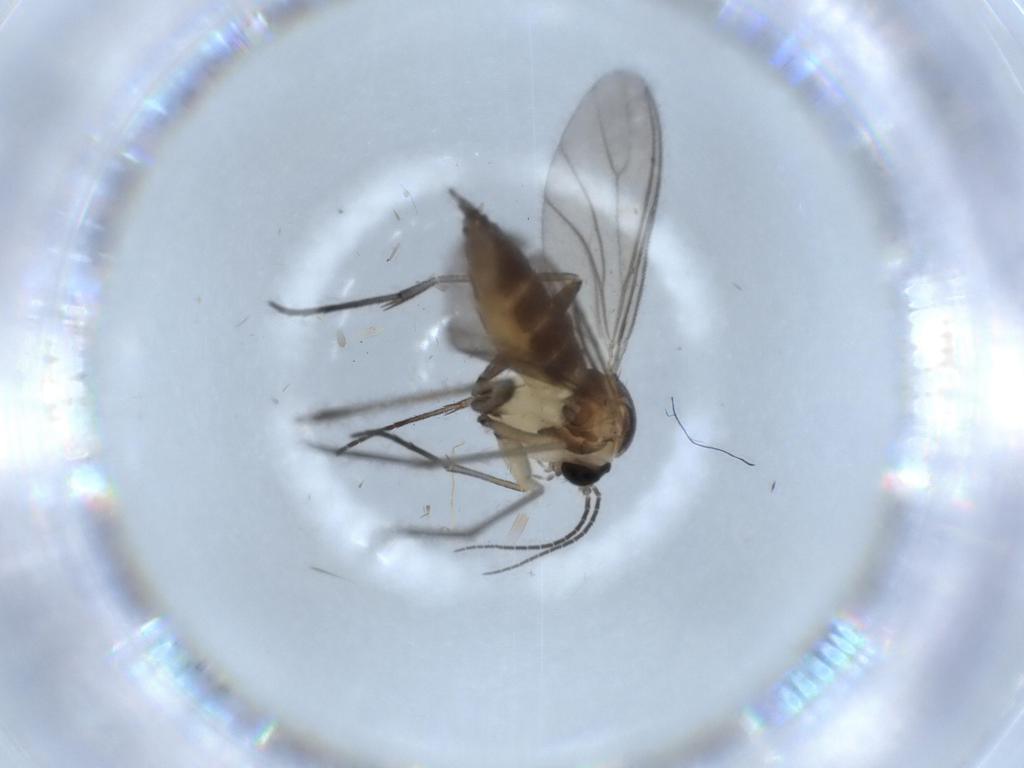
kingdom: Animalia
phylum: Arthropoda
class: Insecta
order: Diptera
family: Sciaridae
